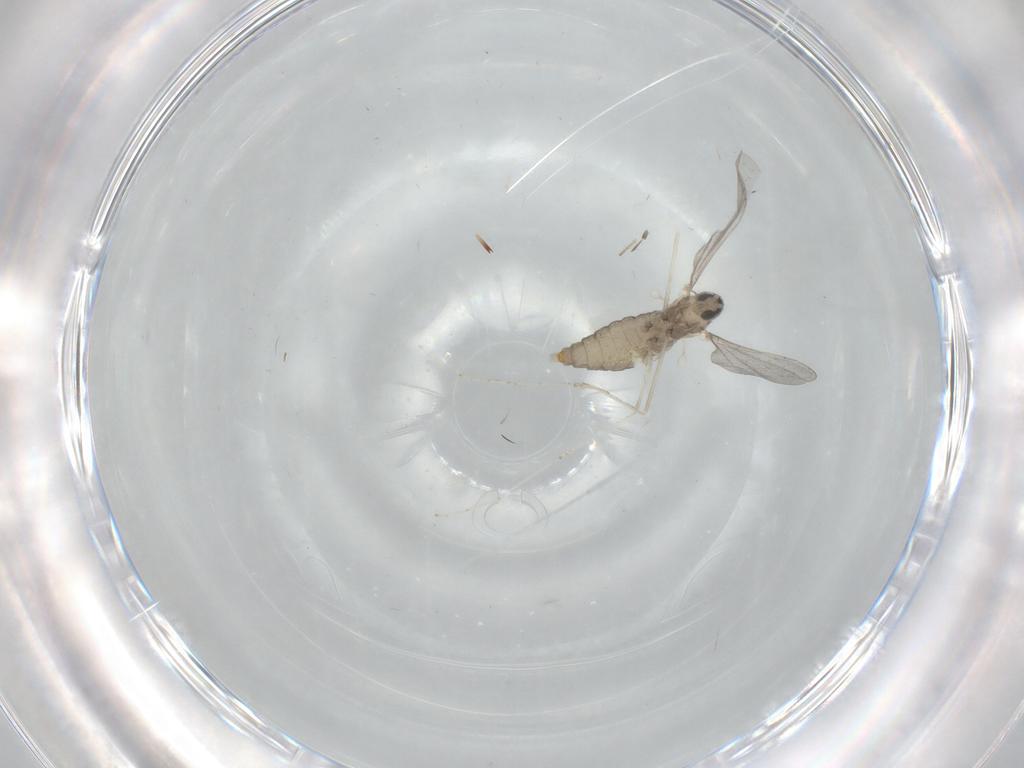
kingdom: Animalia
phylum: Arthropoda
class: Insecta
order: Diptera
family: Cecidomyiidae
